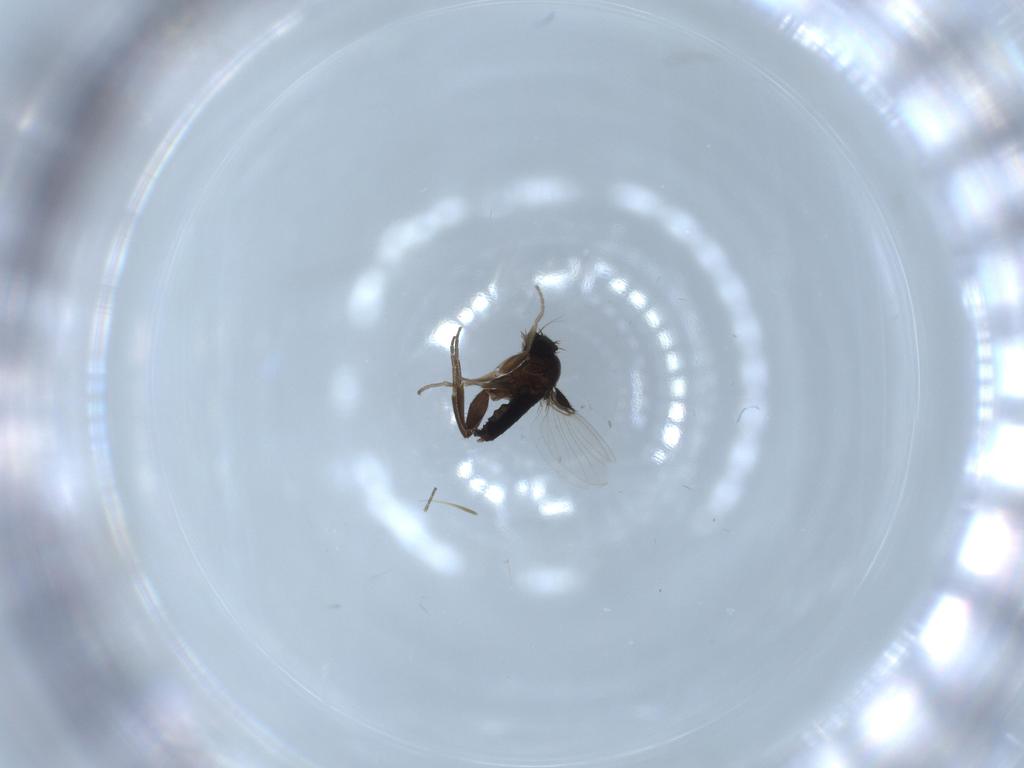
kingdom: Animalia
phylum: Arthropoda
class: Insecta
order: Diptera
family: Phoridae
